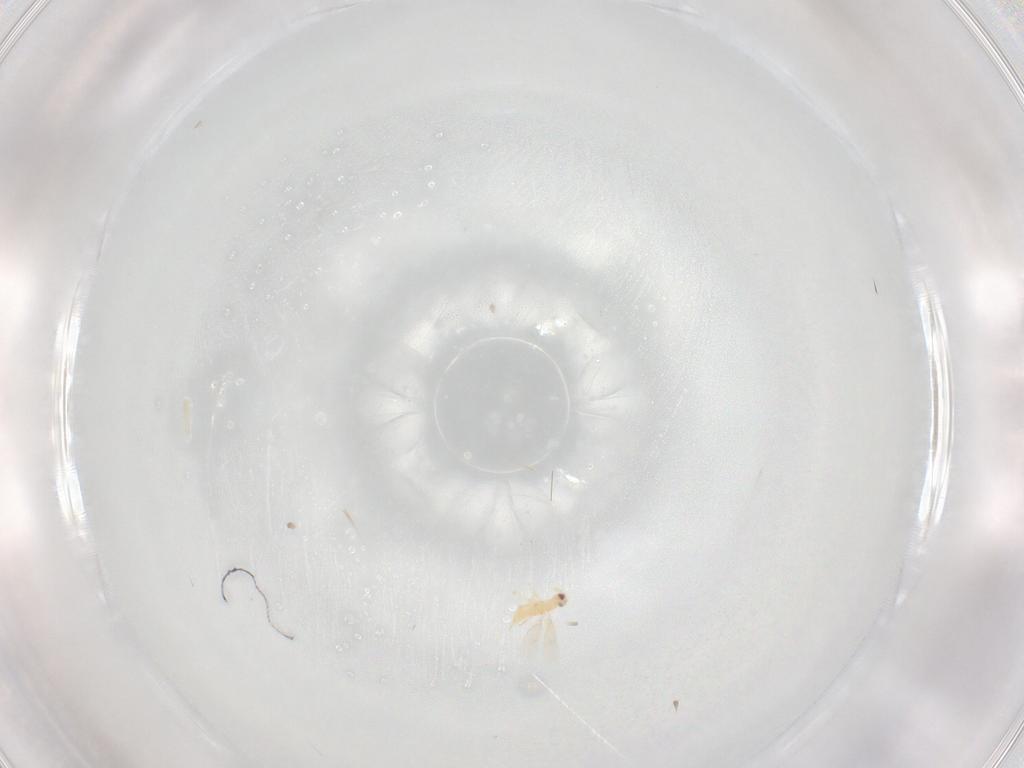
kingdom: Animalia
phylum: Arthropoda
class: Insecta
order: Hymenoptera
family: Aphelinidae
